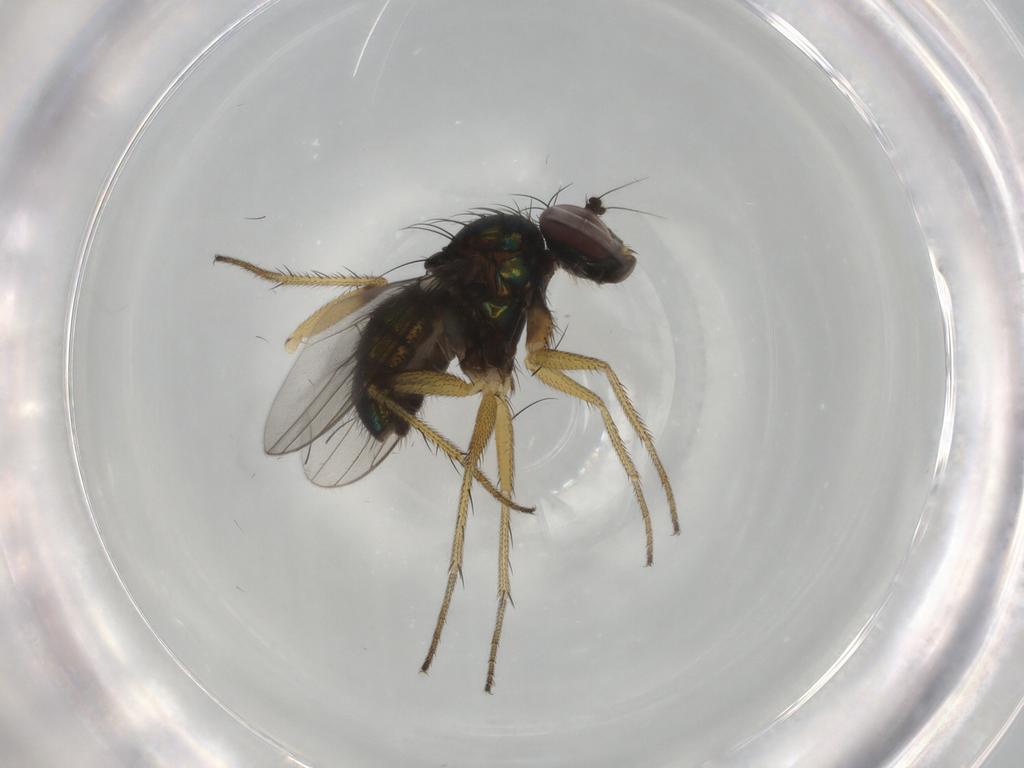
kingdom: Animalia
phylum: Arthropoda
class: Insecta
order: Diptera
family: Dolichopodidae
